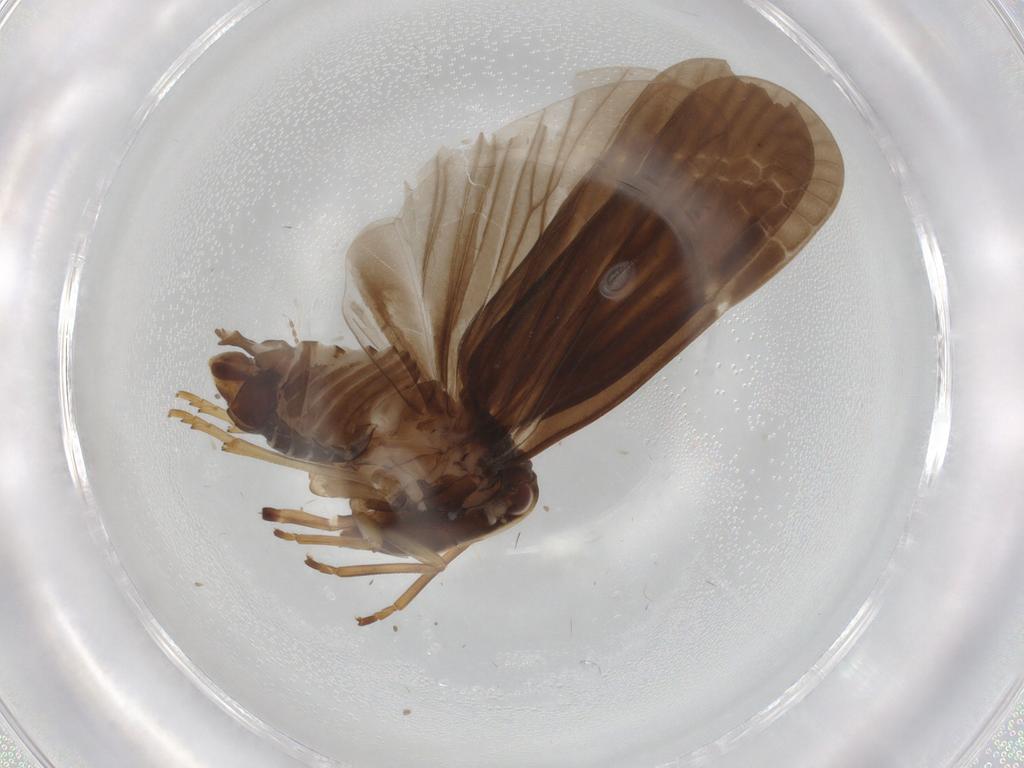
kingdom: Animalia
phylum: Arthropoda
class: Insecta
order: Hemiptera
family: Derbidae
